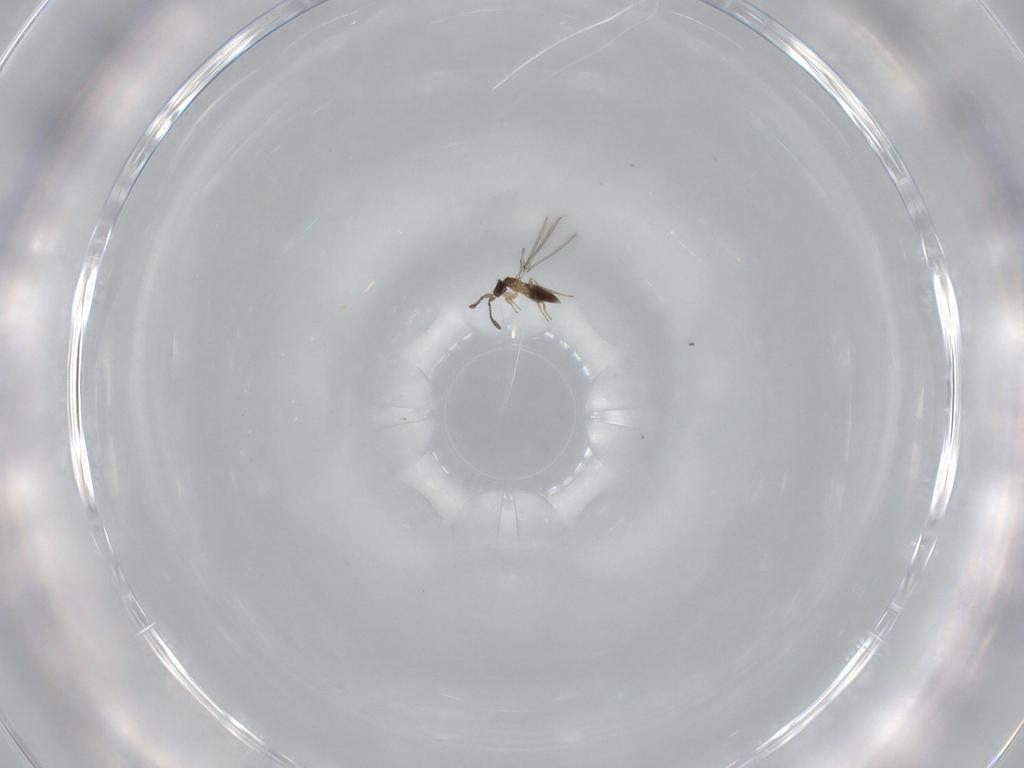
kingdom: Animalia
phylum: Arthropoda
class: Insecta
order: Hymenoptera
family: Mymaridae
